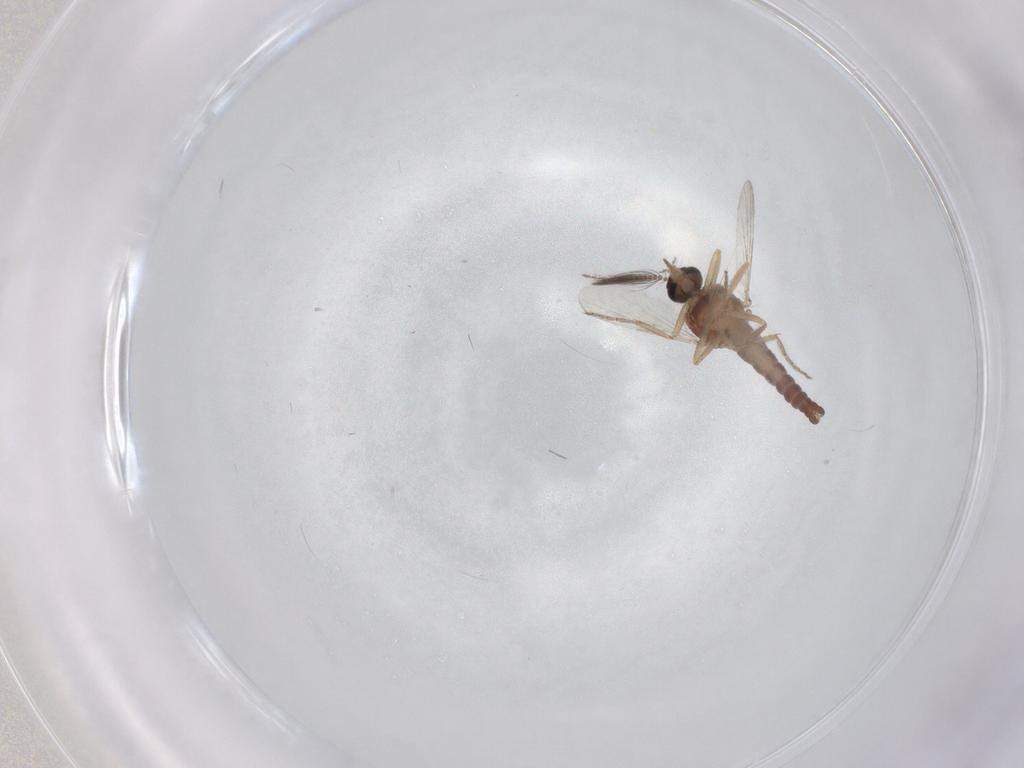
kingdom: Animalia
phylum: Arthropoda
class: Insecta
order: Diptera
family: Ceratopogonidae
